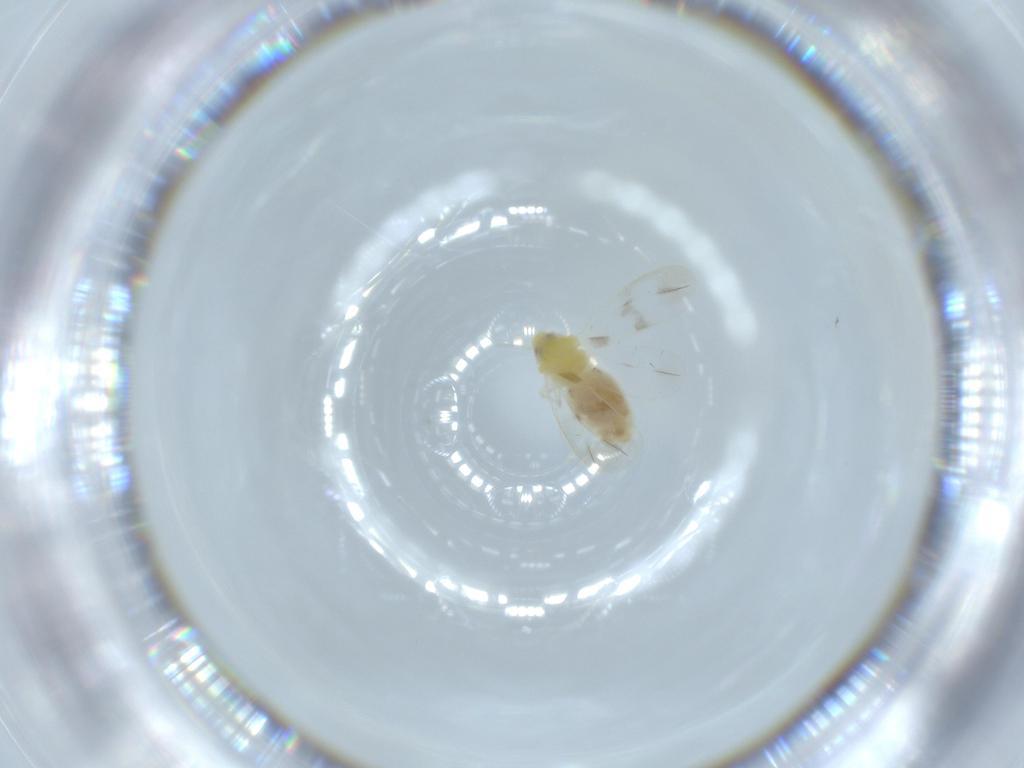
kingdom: Animalia
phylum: Arthropoda
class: Insecta
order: Hemiptera
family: Aleyrodidae
